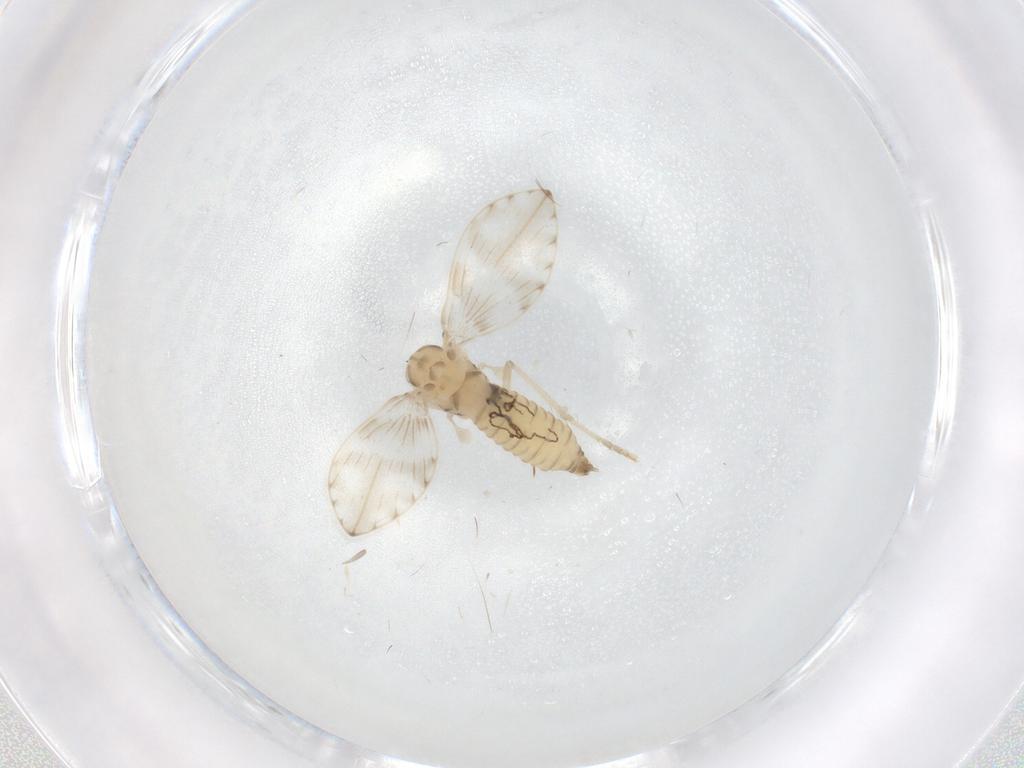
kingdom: Animalia
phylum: Arthropoda
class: Insecta
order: Diptera
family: Psychodidae
